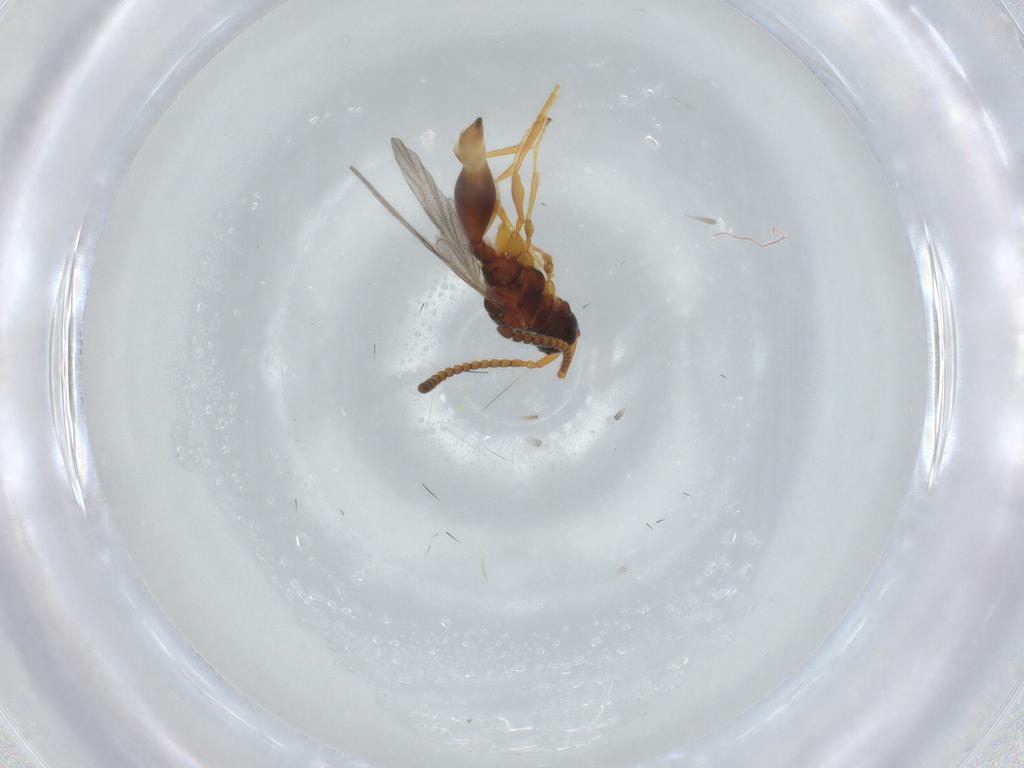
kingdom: Animalia
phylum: Arthropoda
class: Insecta
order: Hymenoptera
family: Diapriidae
